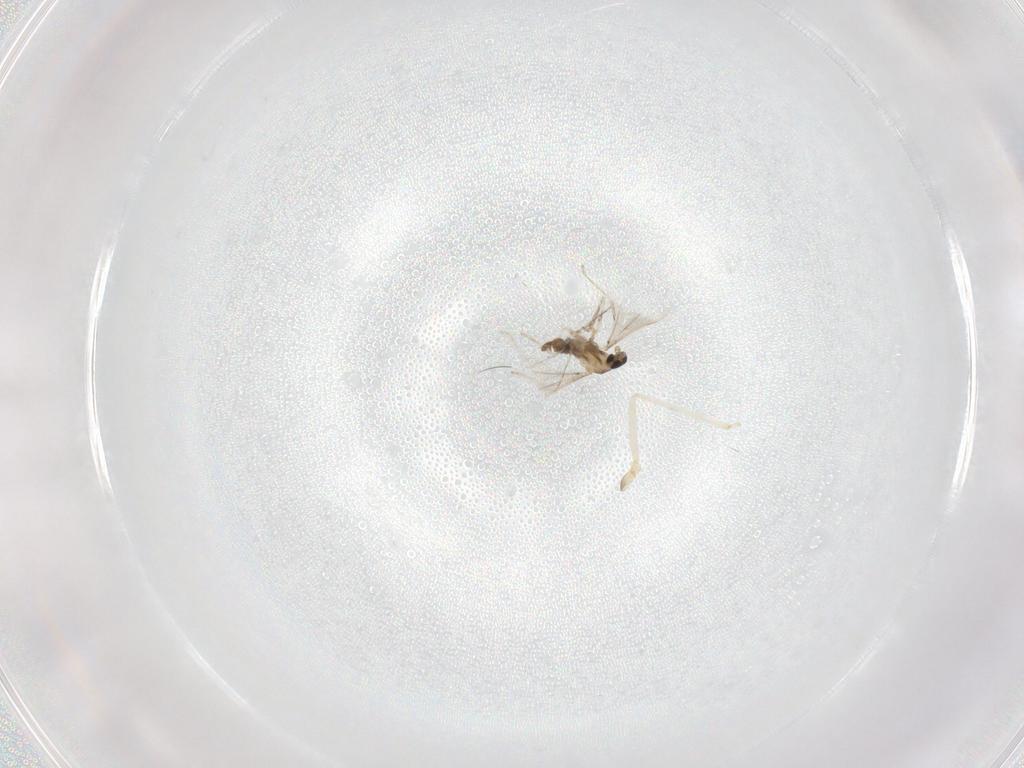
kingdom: Animalia
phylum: Arthropoda
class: Insecta
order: Diptera
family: Cecidomyiidae
